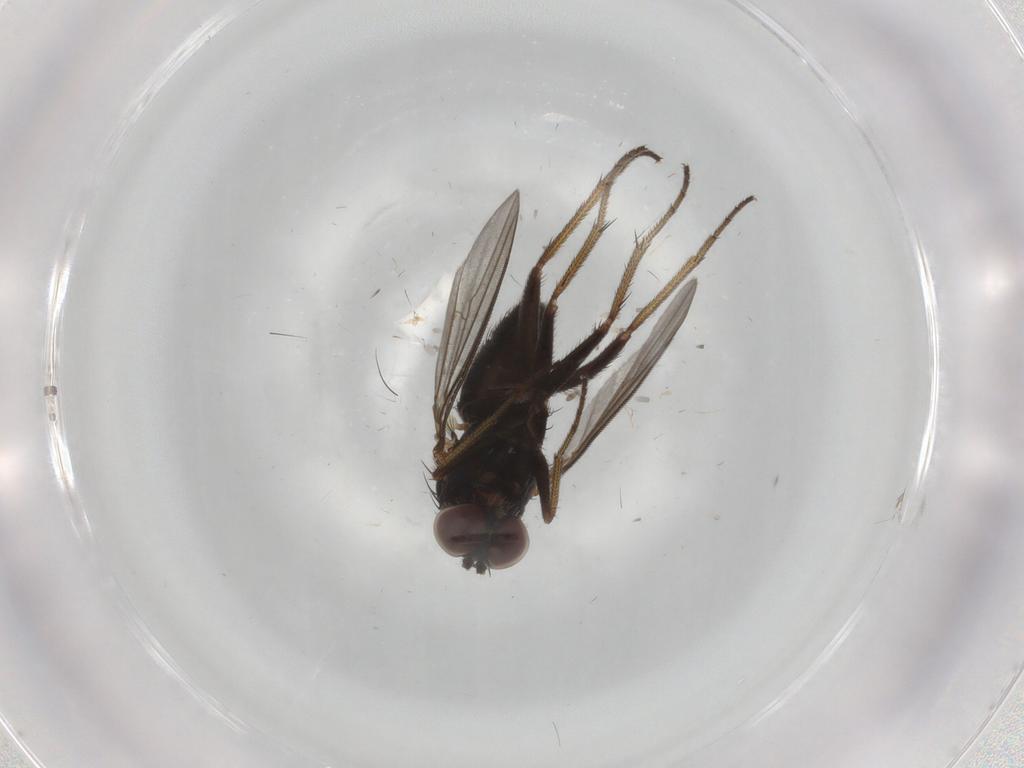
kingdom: Animalia
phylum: Arthropoda
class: Insecta
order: Diptera
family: Dolichopodidae
